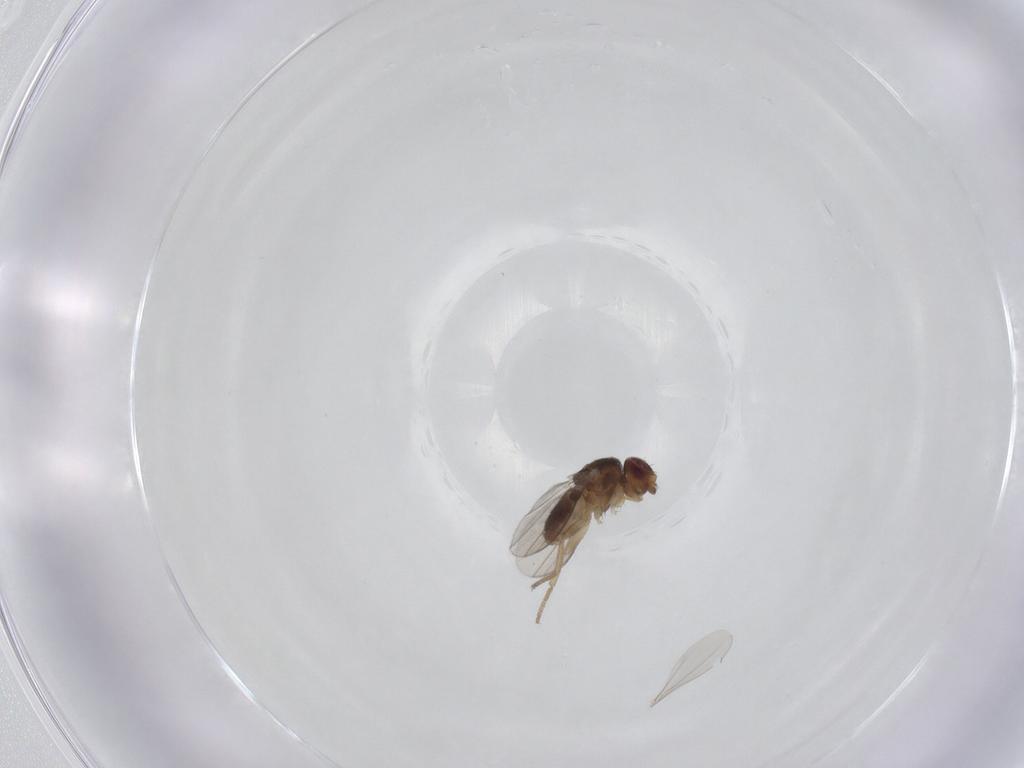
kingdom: Animalia
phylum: Arthropoda
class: Insecta
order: Diptera
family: Milichiidae
